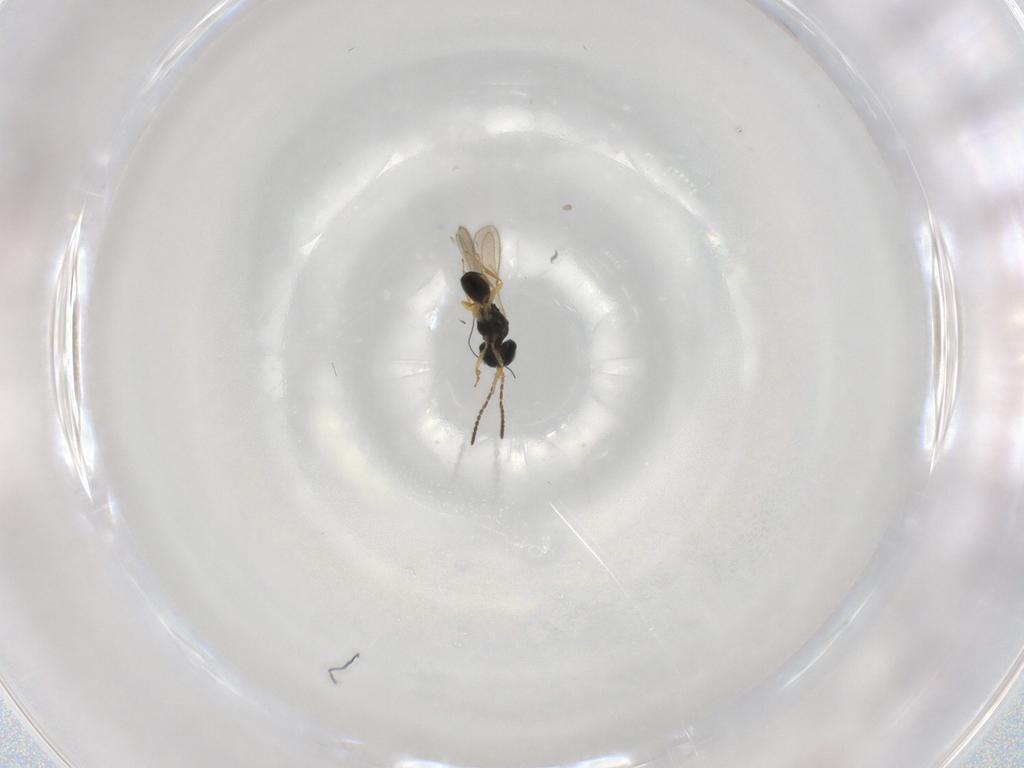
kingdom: Animalia
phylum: Arthropoda
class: Insecta
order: Hymenoptera
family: Scelionidae
